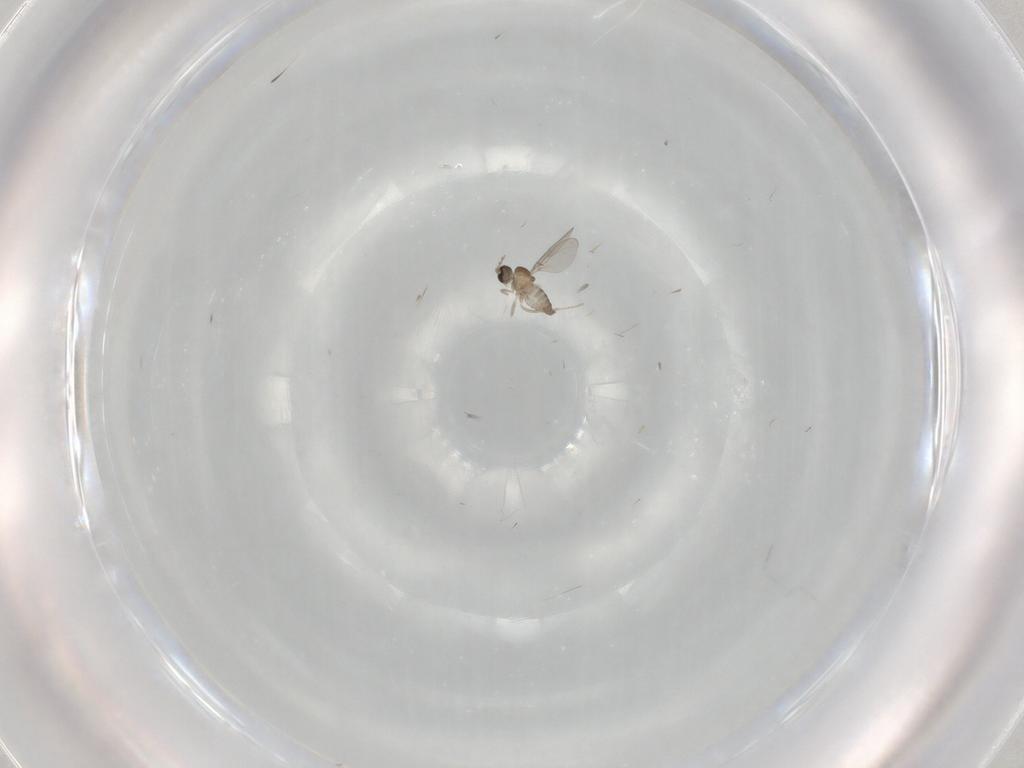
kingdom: Animalia
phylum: Arthropoda
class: Insecta
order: Diptera
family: Cecidomyiidae
